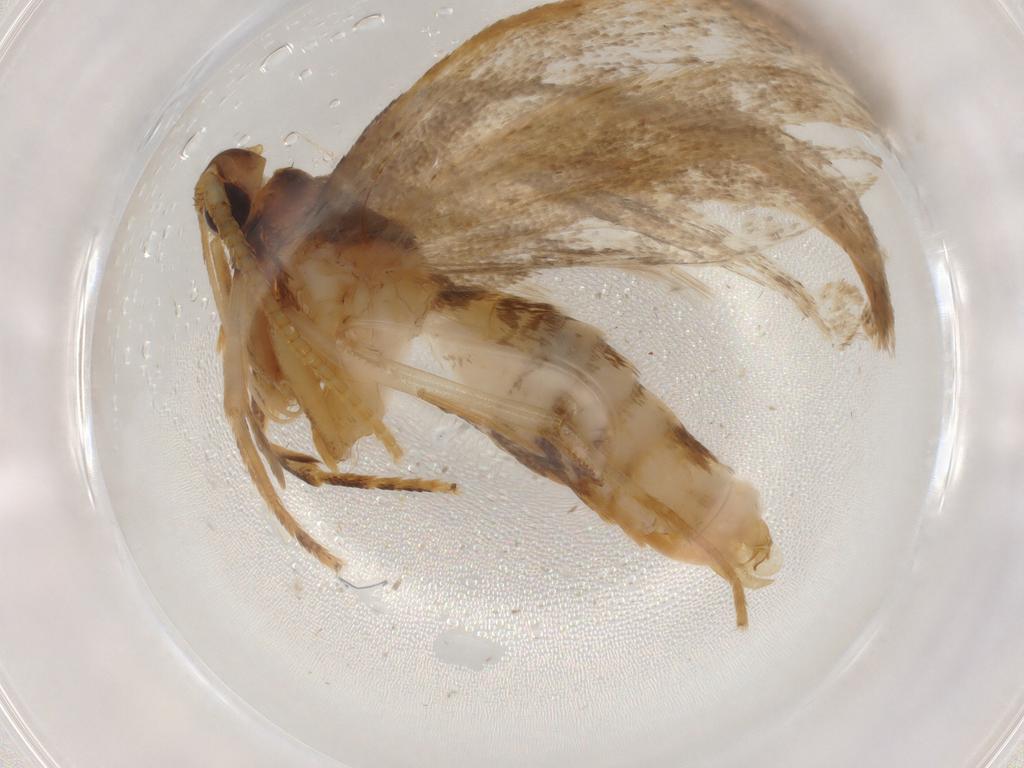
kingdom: Animalia
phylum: Arthropoda
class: Insecta
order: Lepidoptera
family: Lecithoceridae
